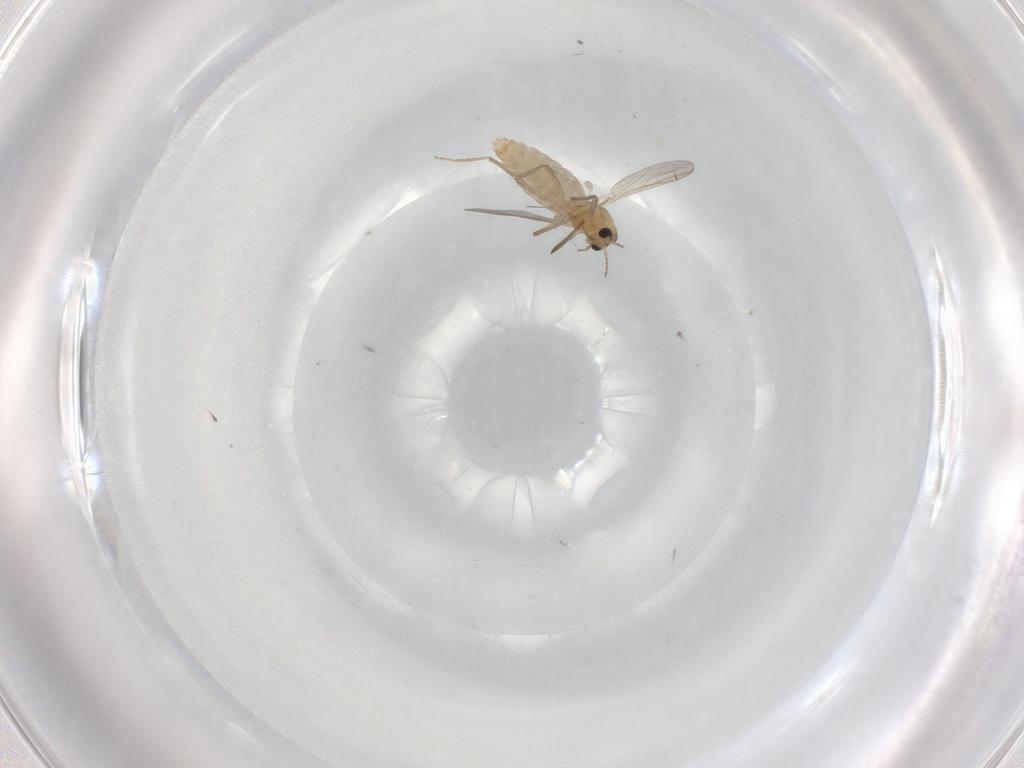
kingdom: Animalia
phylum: Arthropoda
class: Insecta
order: Diptera
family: Chironomidae
